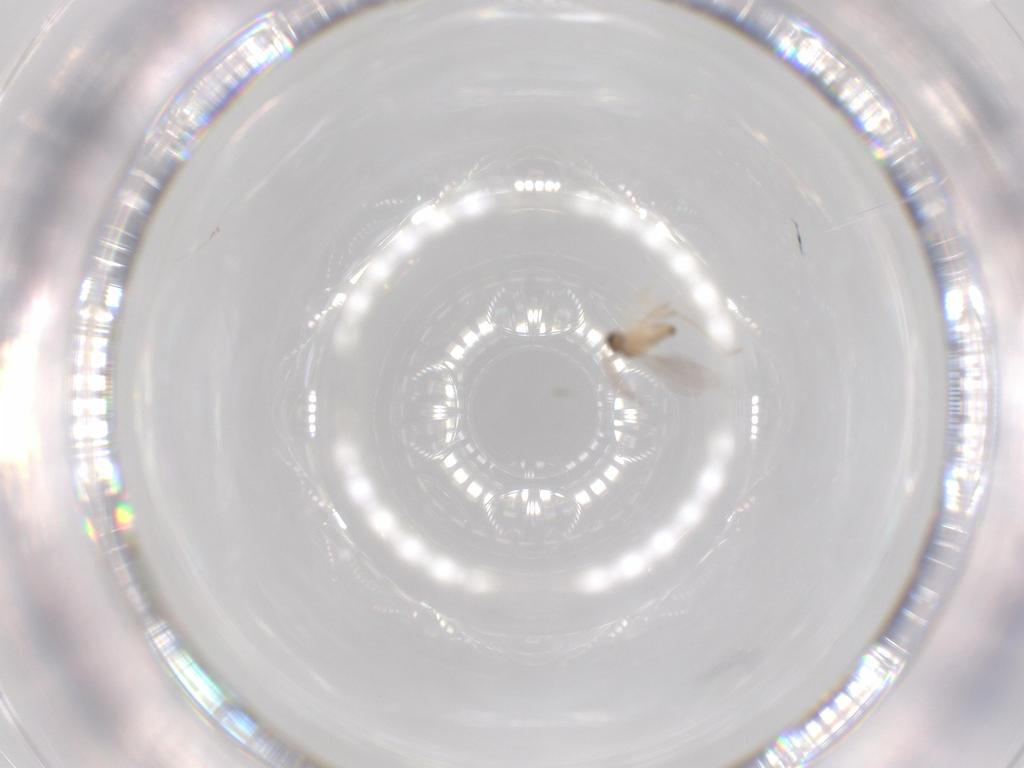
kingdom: Animalia
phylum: Arthropoda
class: Insecta
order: Diptera
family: Cecidomyiidae
